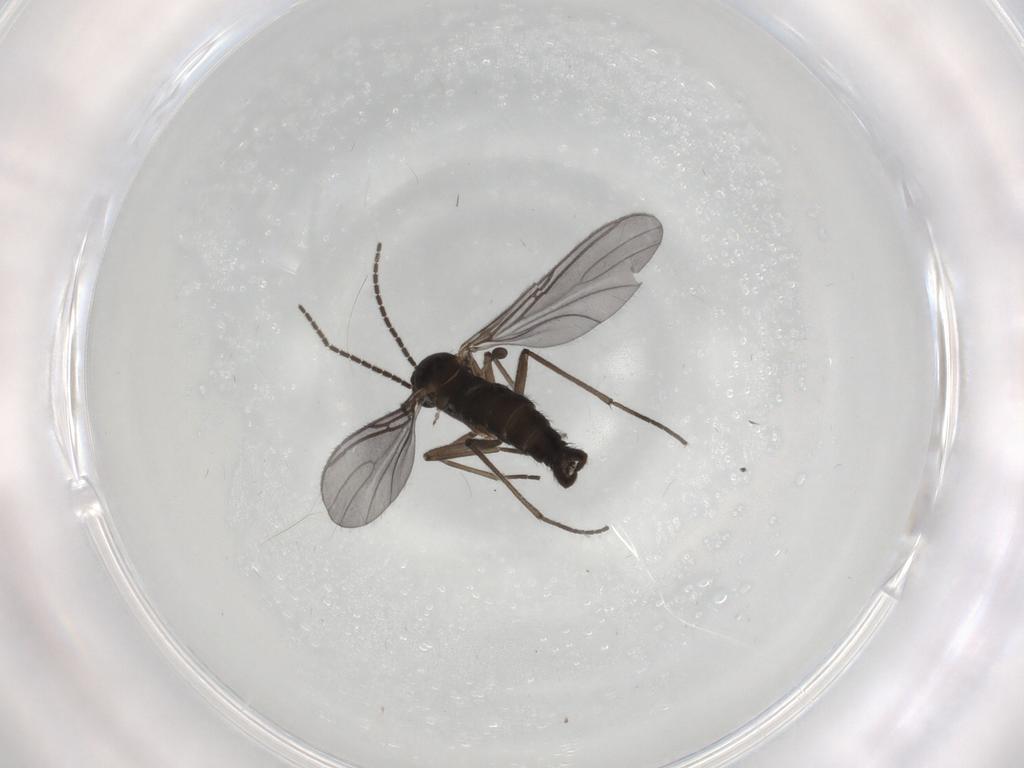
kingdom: Animalia
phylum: Arthropoda
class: Insecta
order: Diptera
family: Sciaridae
